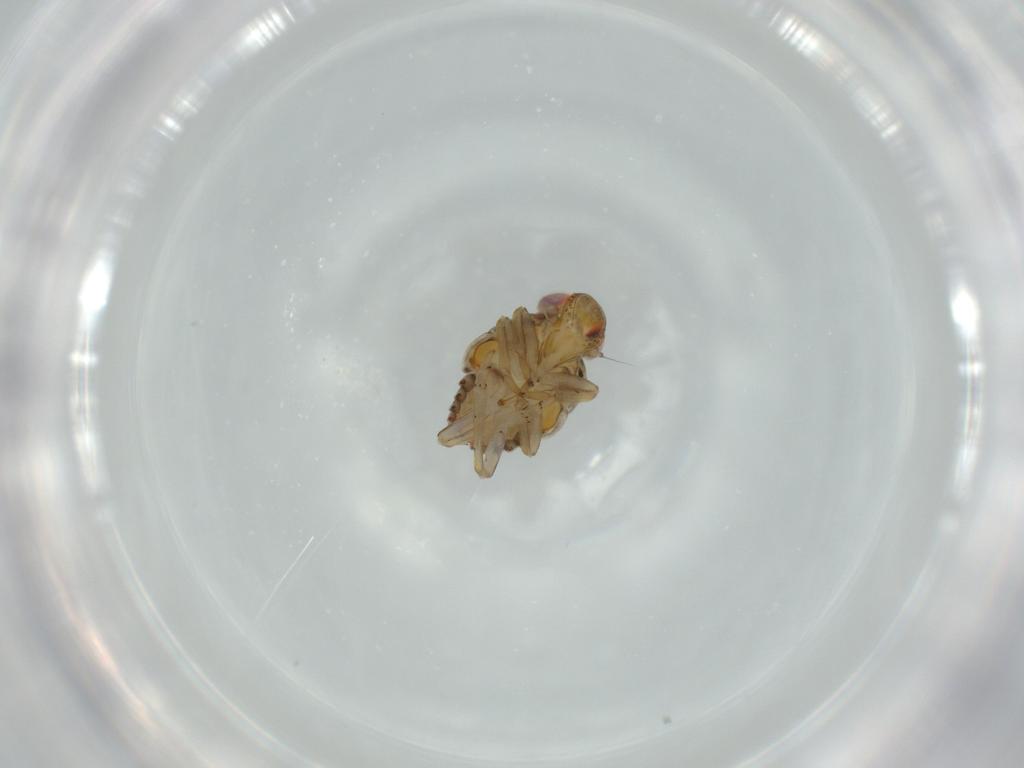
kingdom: Animalia
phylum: Arthropoda
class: Insecta
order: Hemiptera
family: Issidae
